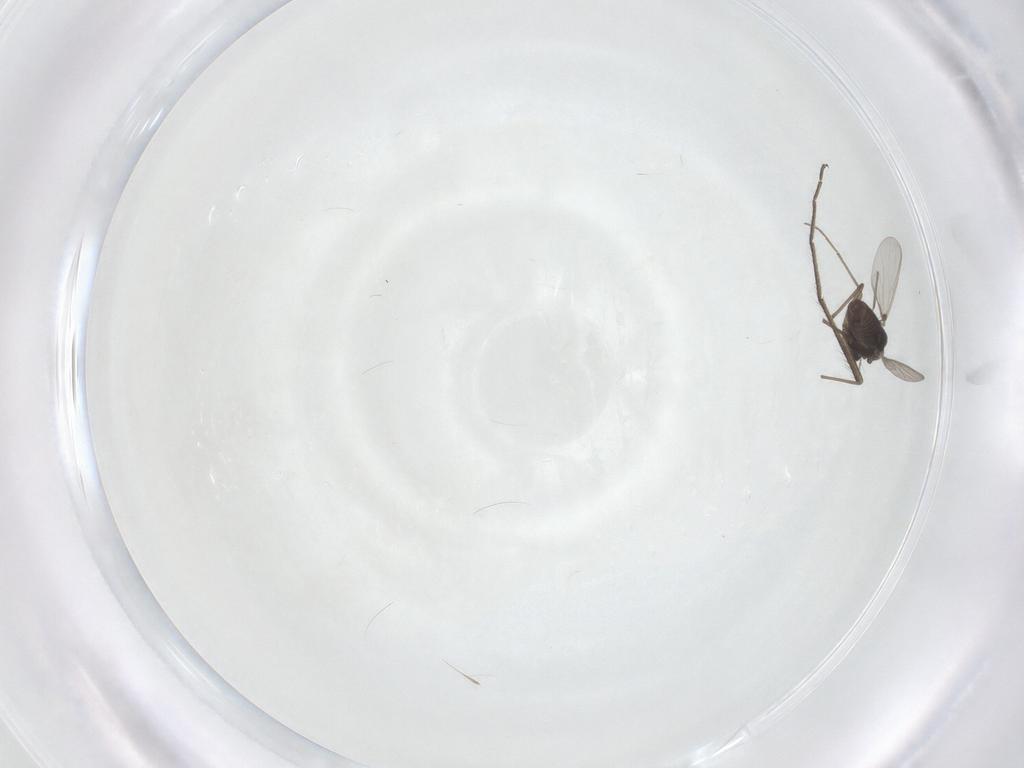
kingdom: Animalia
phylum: Arthropoda
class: Insecta
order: Diptera
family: Chironomidae
